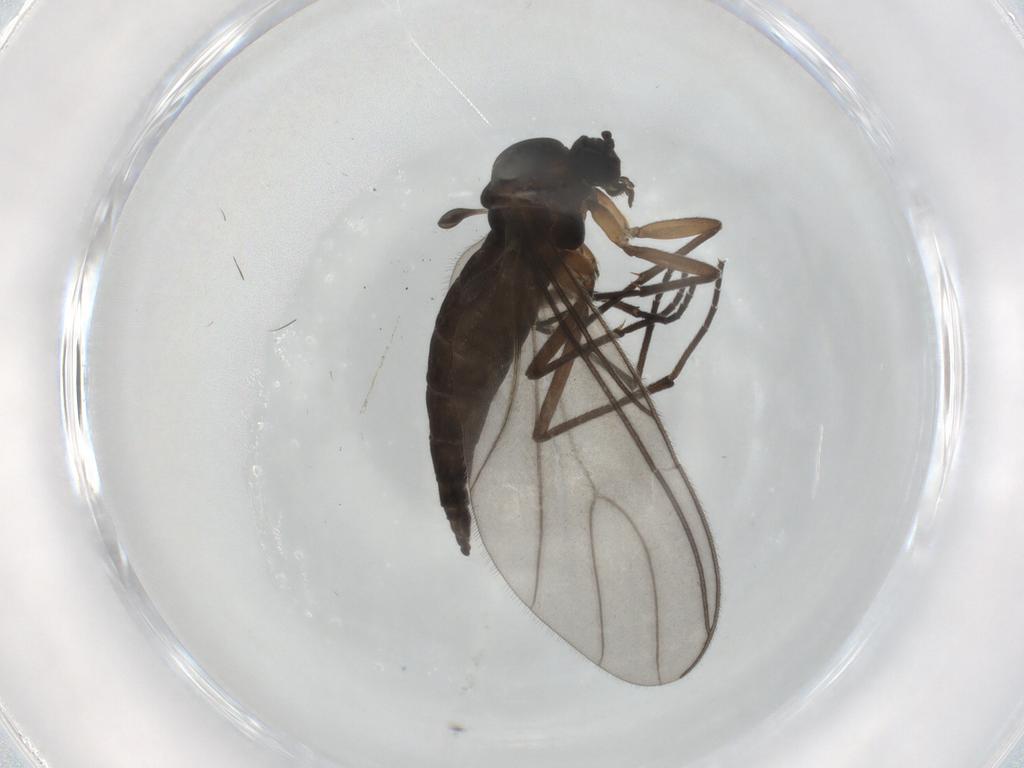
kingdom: Animalia
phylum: Arthropoda
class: Insecta
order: Diptera
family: Sciaridae
